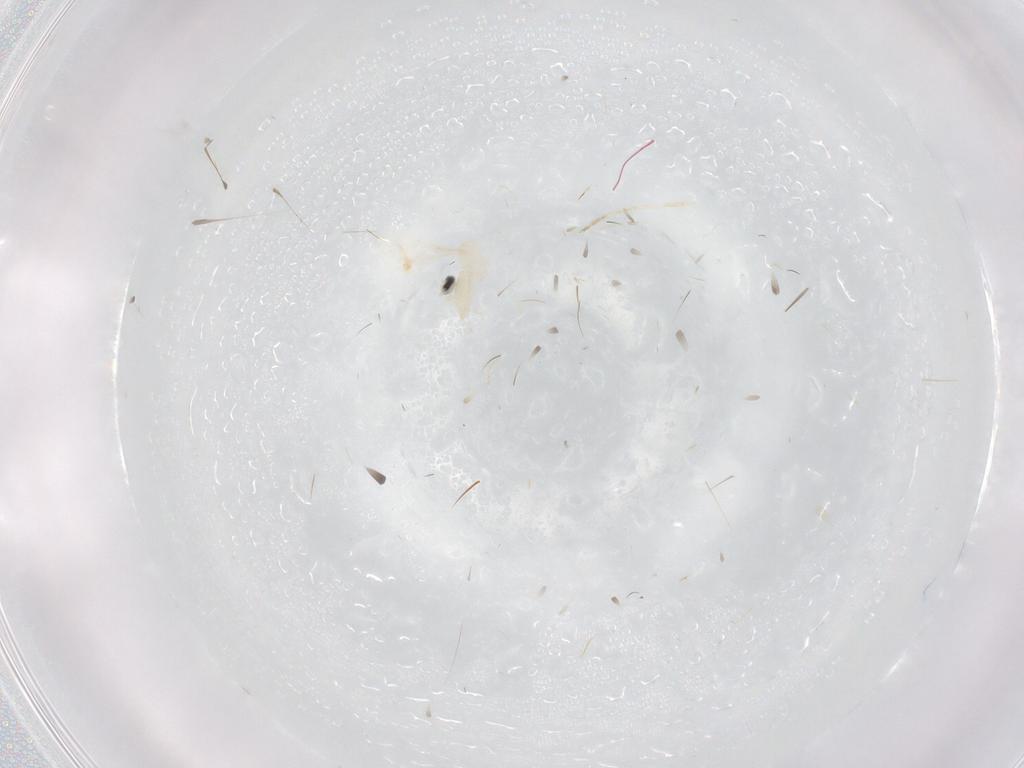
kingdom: Animalia
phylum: Arthropoda
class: Insecta
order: Diptera
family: Cecidomyiidae
